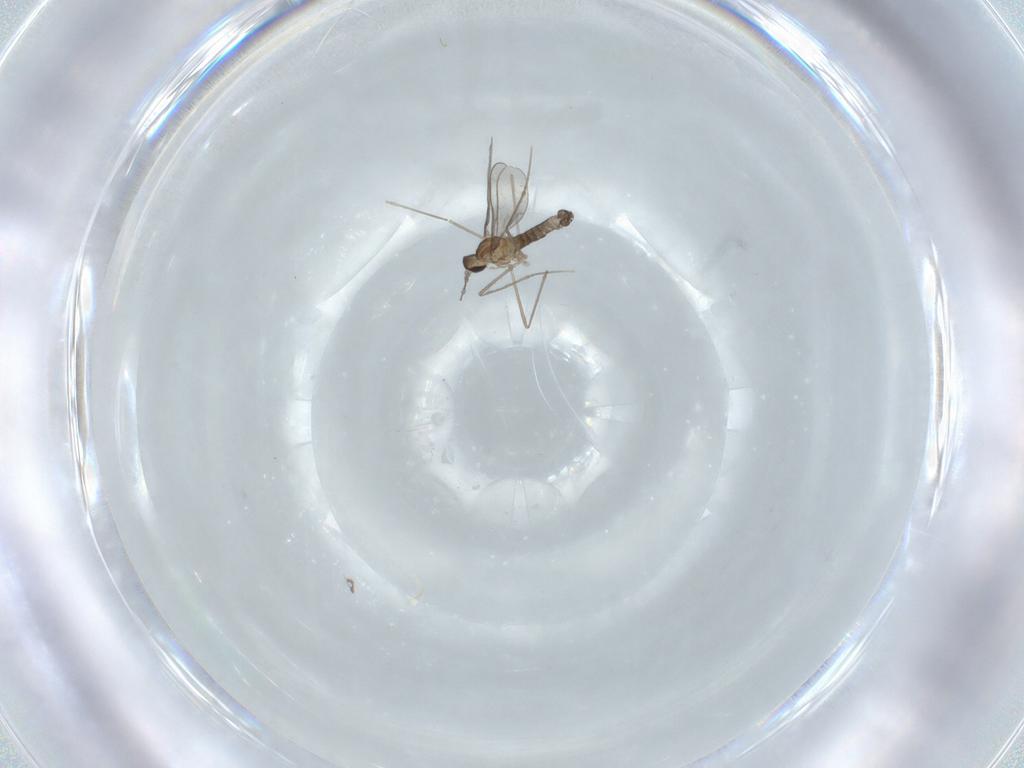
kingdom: Animalia
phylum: Arthropoda
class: Insecta
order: Diptera
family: Cecidomyiidae
